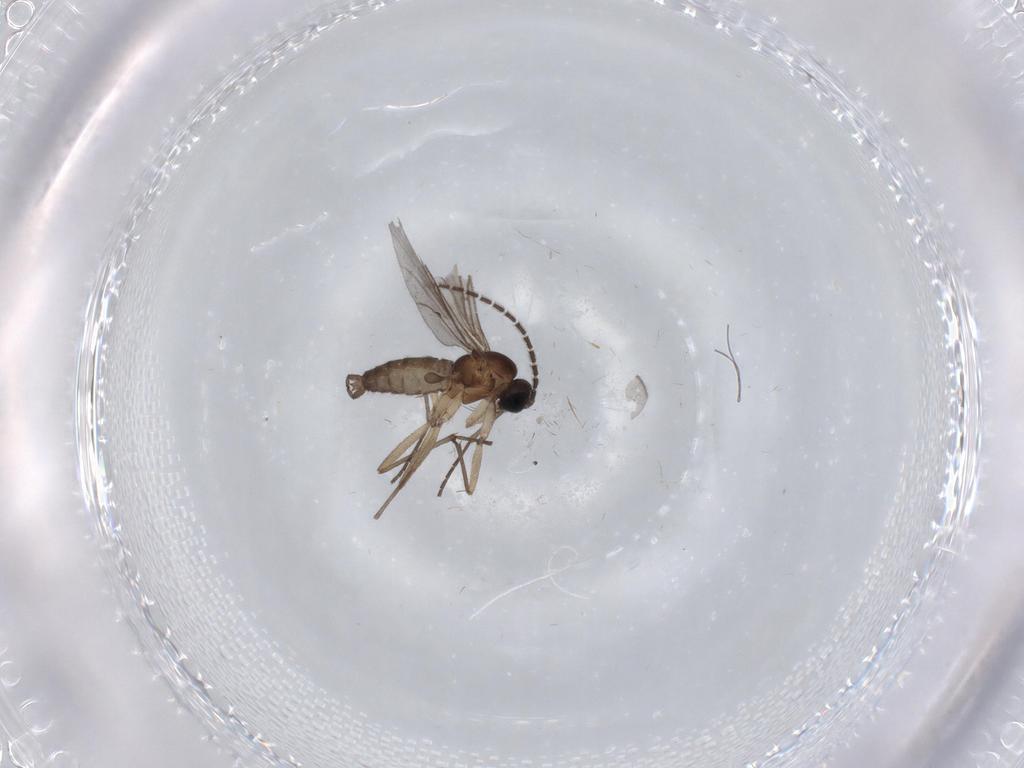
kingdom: Animalia
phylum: Arthropoda
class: Insecta
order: Diptera
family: Sciaridae
